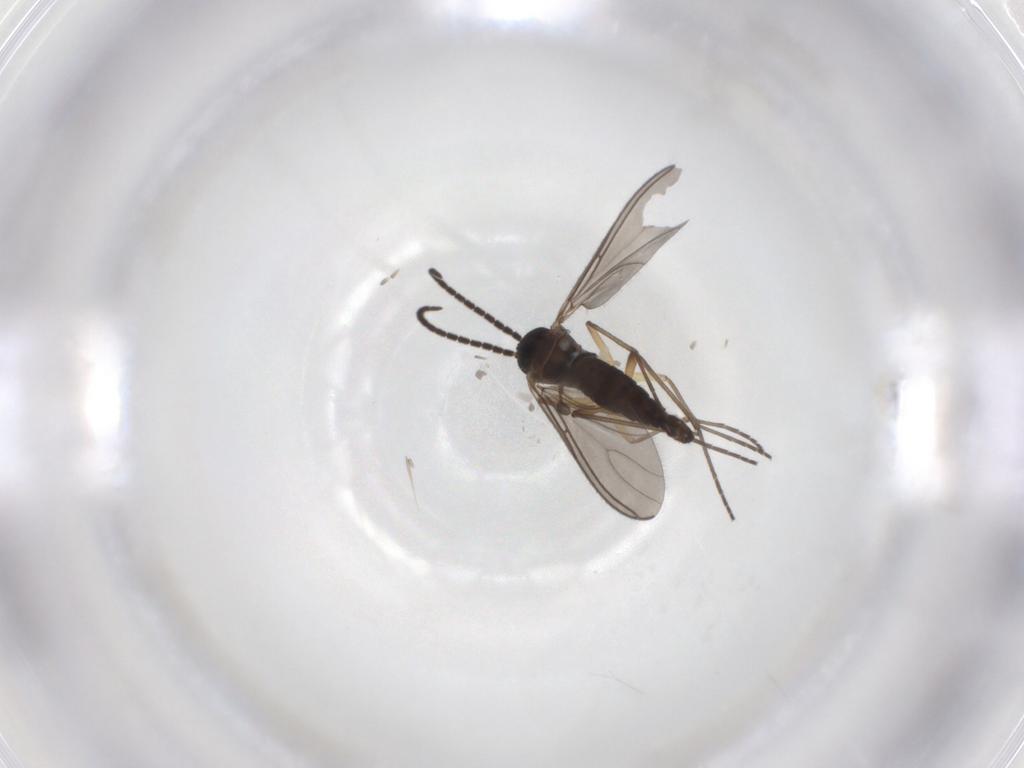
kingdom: Animalia
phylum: Arthropoda
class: Insecta
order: Diptera
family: Sciaridae
